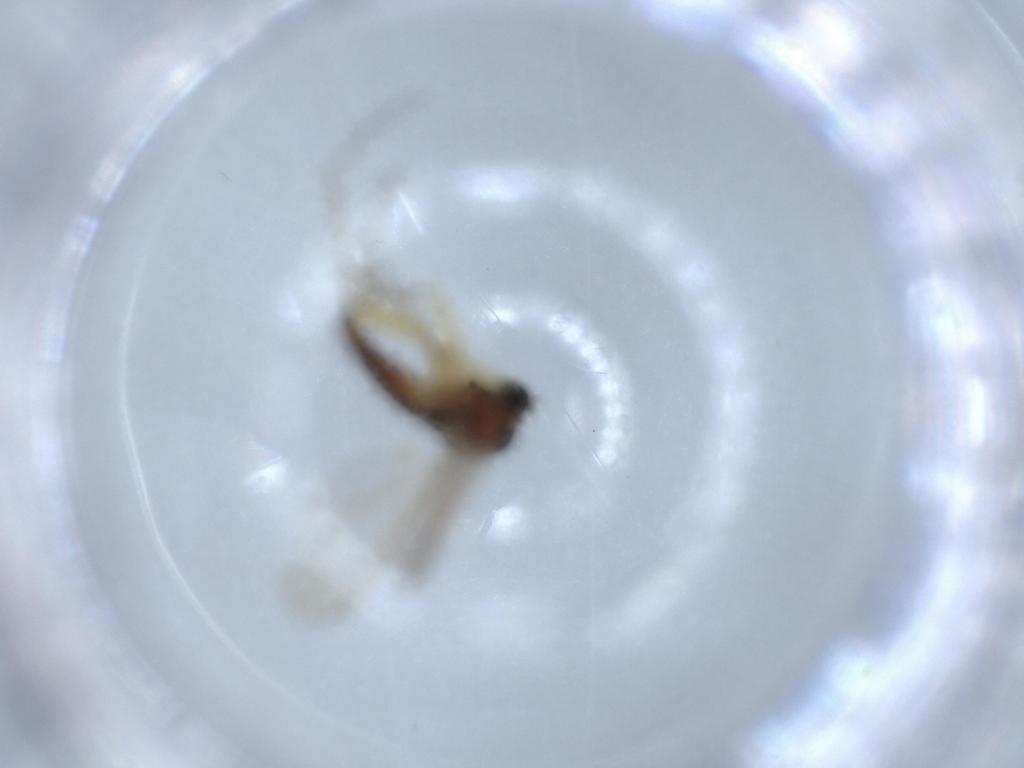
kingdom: Animalia
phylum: Arthropoda
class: Insecta
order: Diptera
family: Sciaridae
